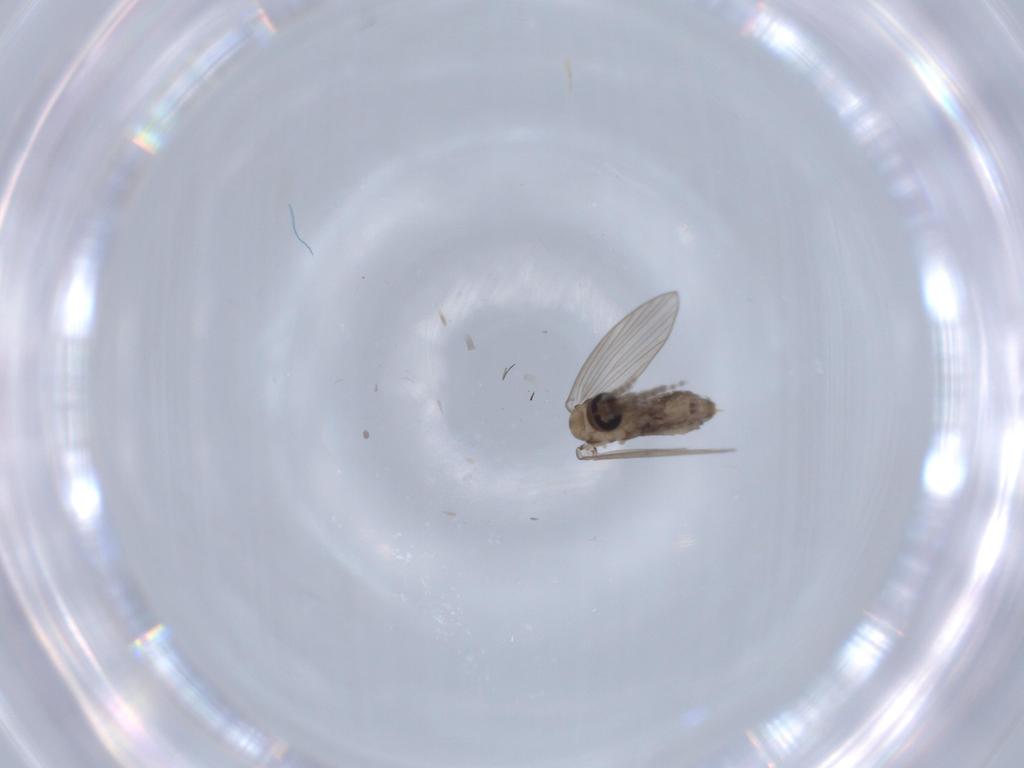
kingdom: Animalia
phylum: Arthropoda
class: Insecta
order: Diptera
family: Psychodidae
